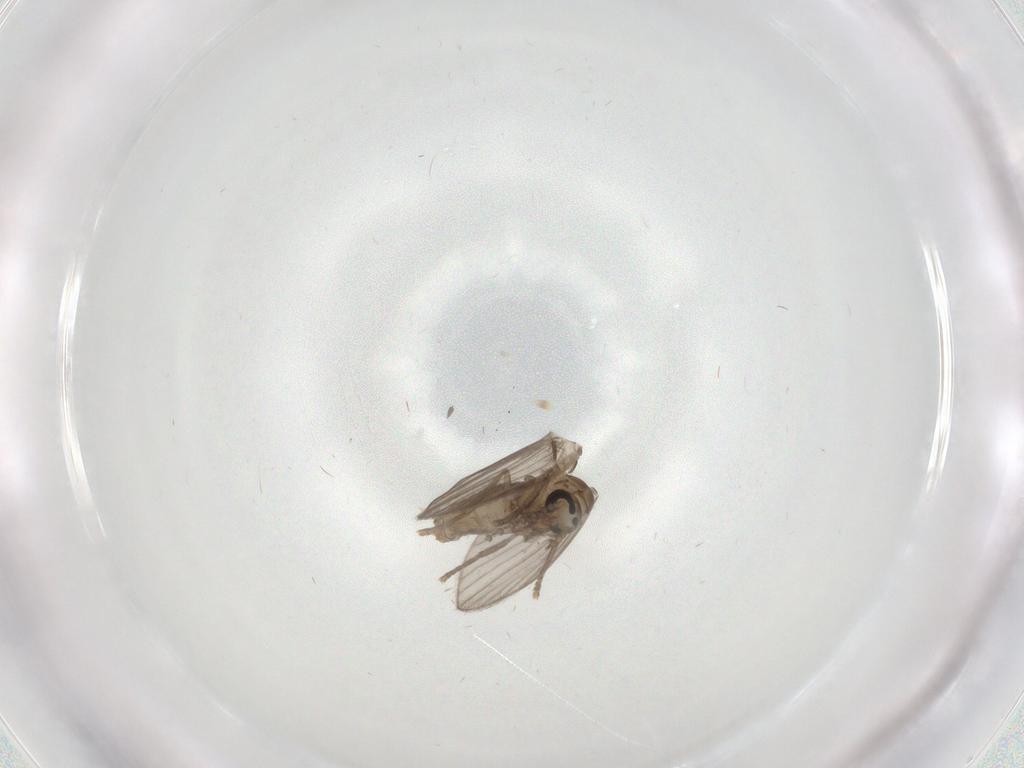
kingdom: Animalia
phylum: Arthropoda
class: Insecta
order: Diptera
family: Psychodidae
